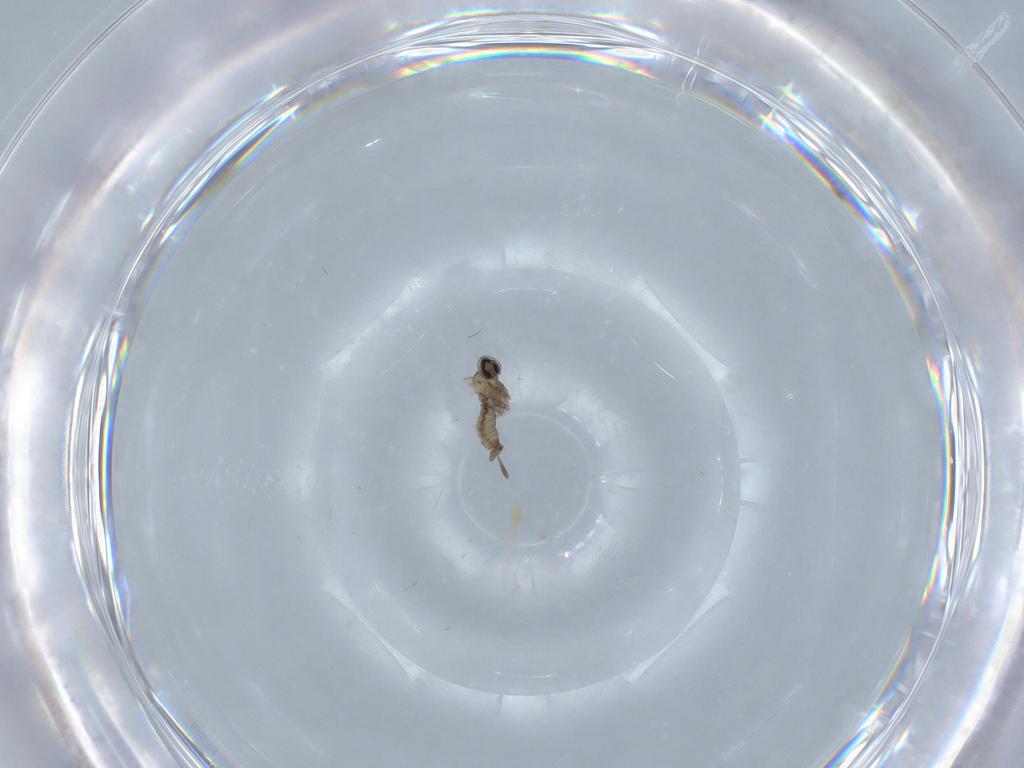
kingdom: Animalia
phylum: Arthropoda
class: Insecta
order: Diptera
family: Cecidomyiidae
